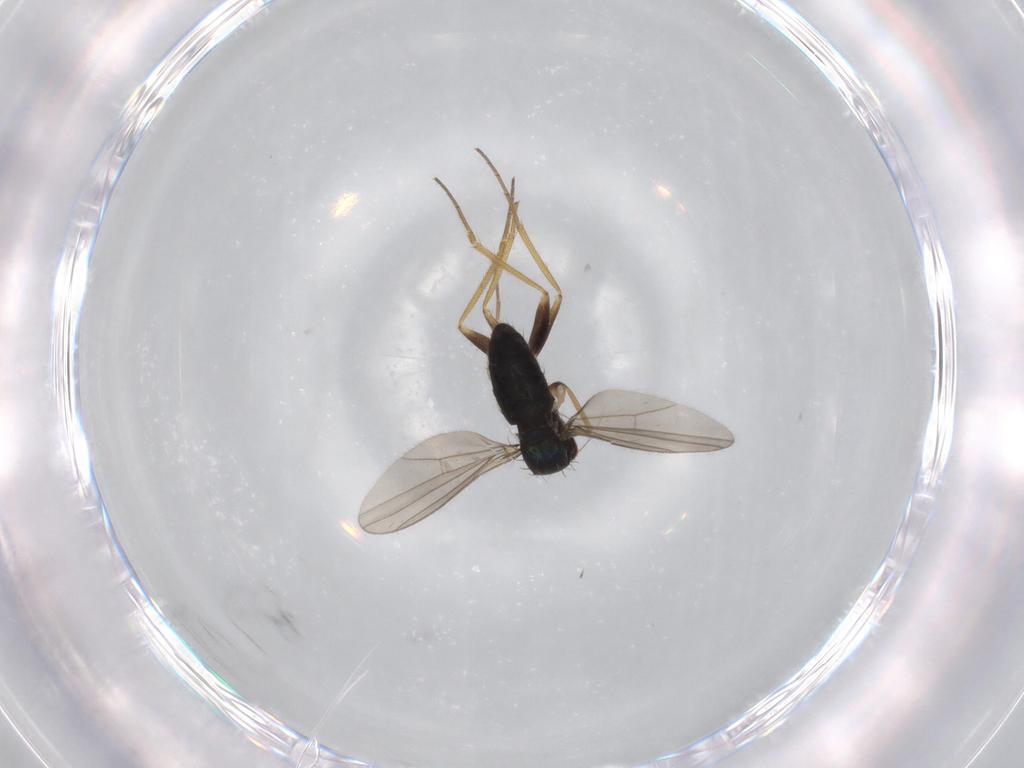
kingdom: Animalia
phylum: Arthropoda
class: Insecta
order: Diptera
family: Dolichopodidae
